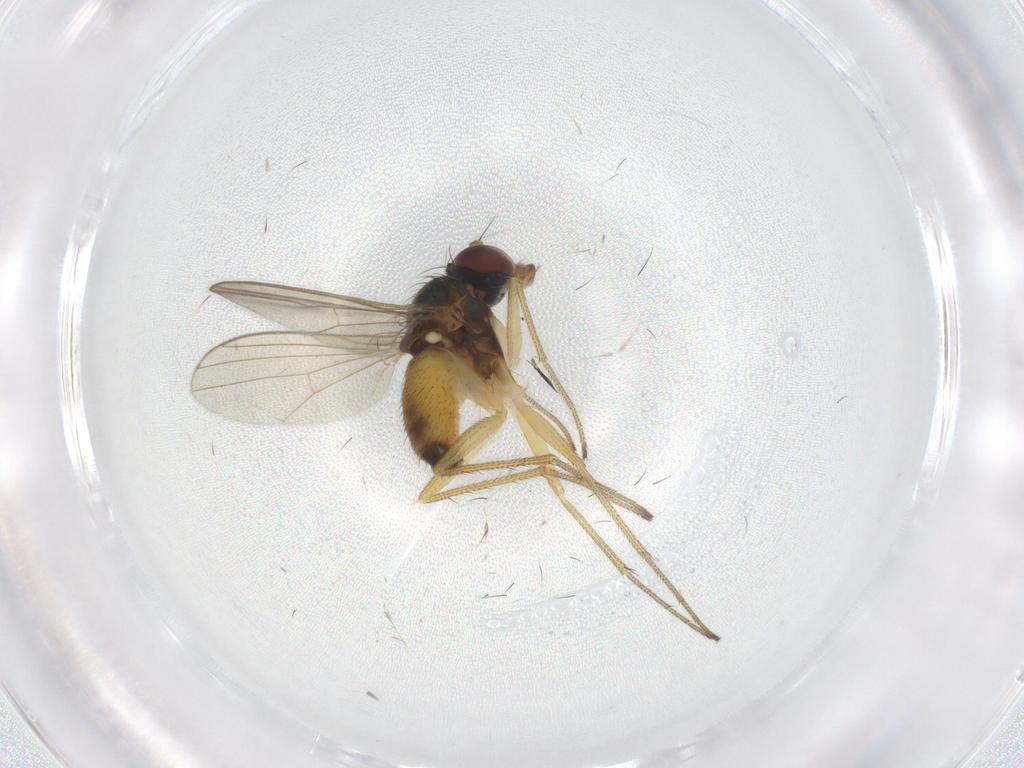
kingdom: Animalia
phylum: Arthropoda
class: Insecta
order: Diptera
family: Dolichopodidae
